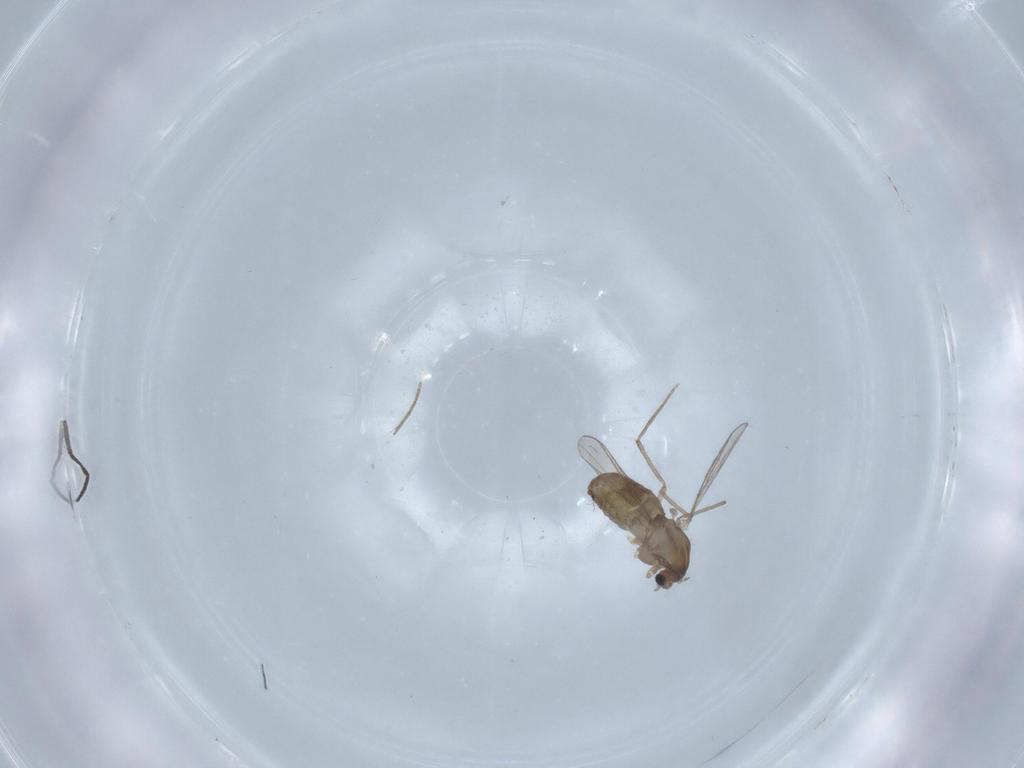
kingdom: Animalia
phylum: Arthropoda
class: Insecta
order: Diptera
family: Chironomidae
